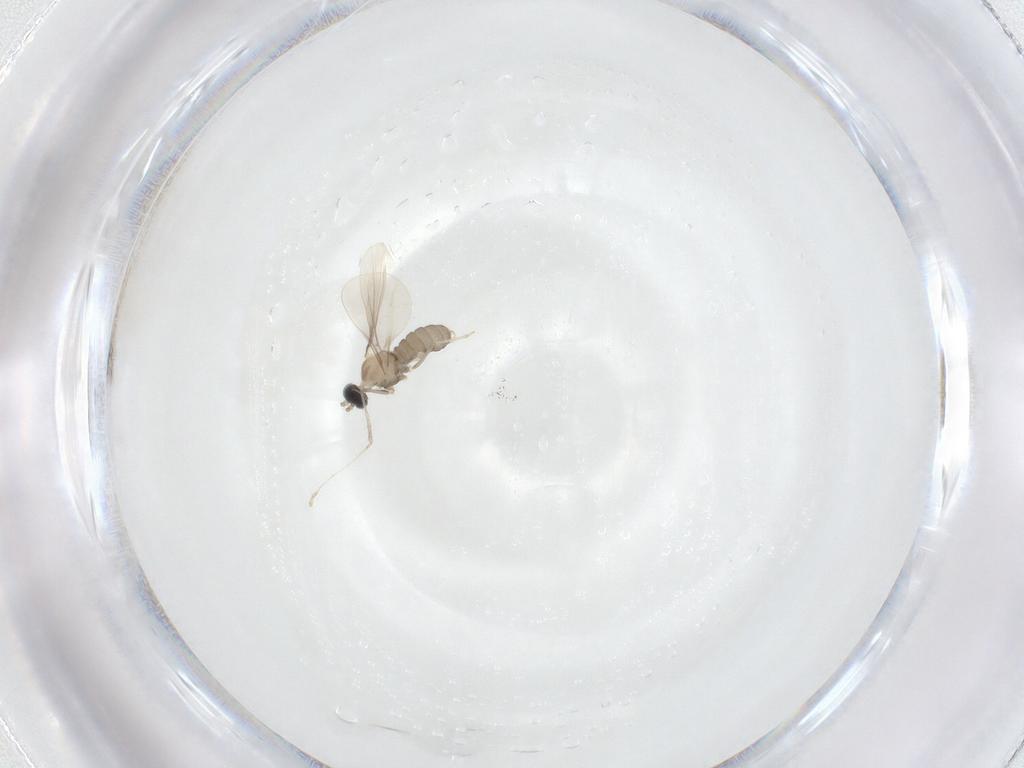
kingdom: Animalia
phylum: Arthropoda
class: Insecta
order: Diptera
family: Cecidomyiidae
